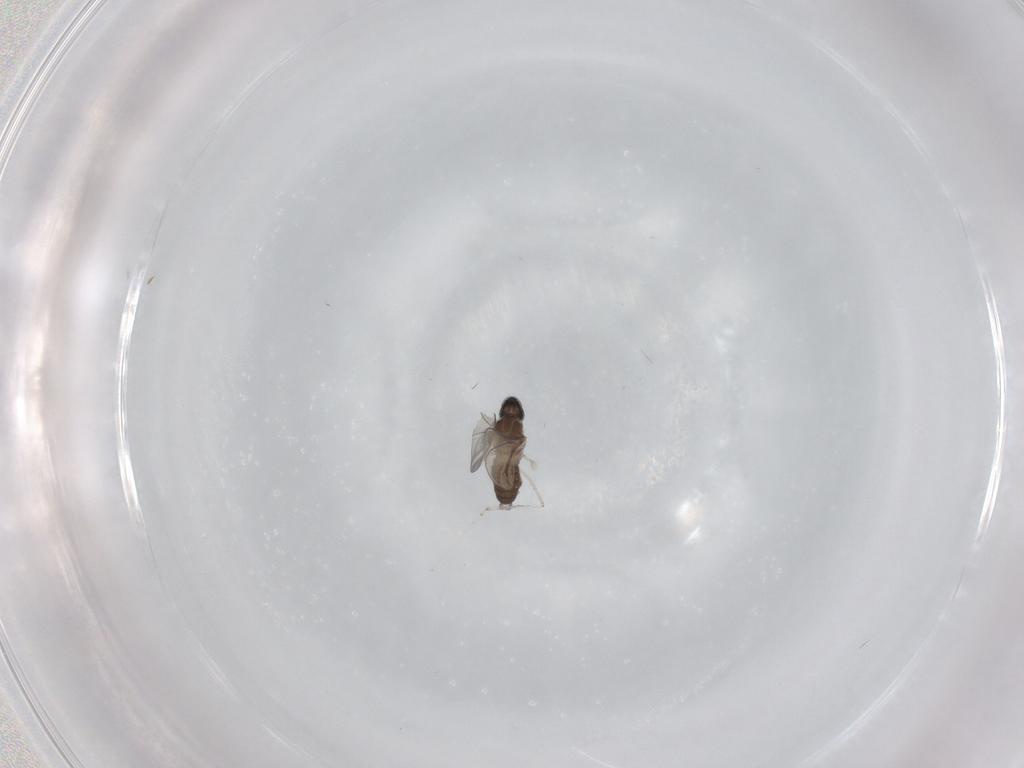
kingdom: Animalia
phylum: Arthropoda
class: Insecta
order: Diptera
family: Cecidomyiidae
